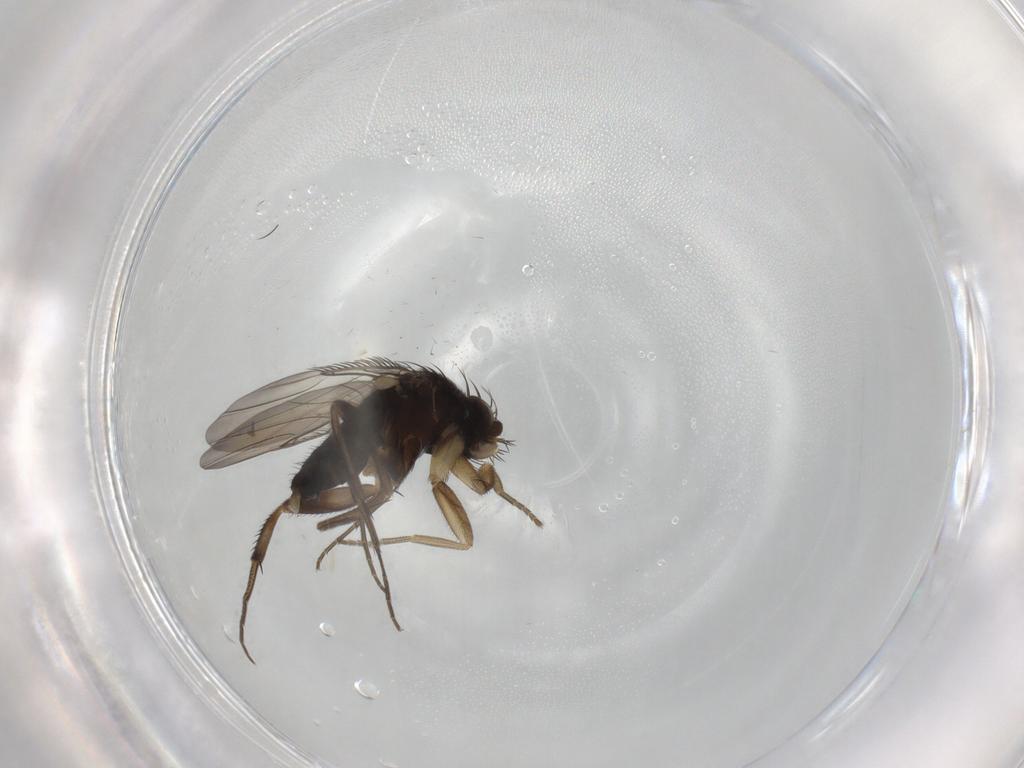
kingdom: Animalia
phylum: Arthropoda
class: Insecta
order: Diptera
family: Phoridae
